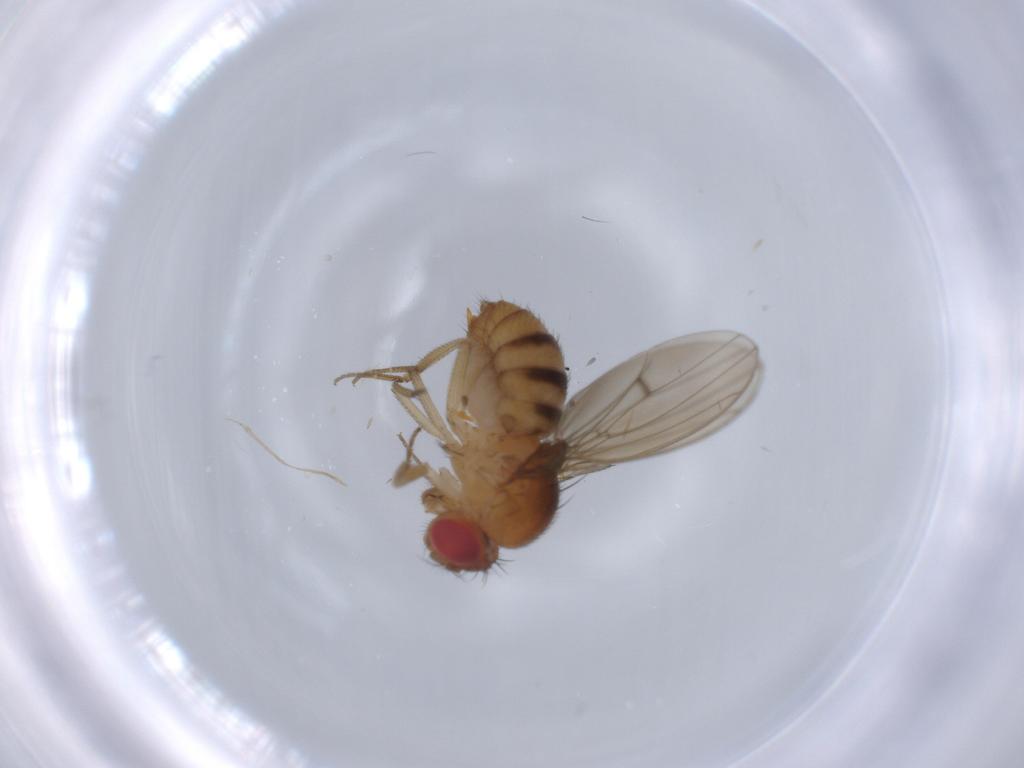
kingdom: Animalia
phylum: Arthropoda
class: Insecta
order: Diptera
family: Drosophilidae
